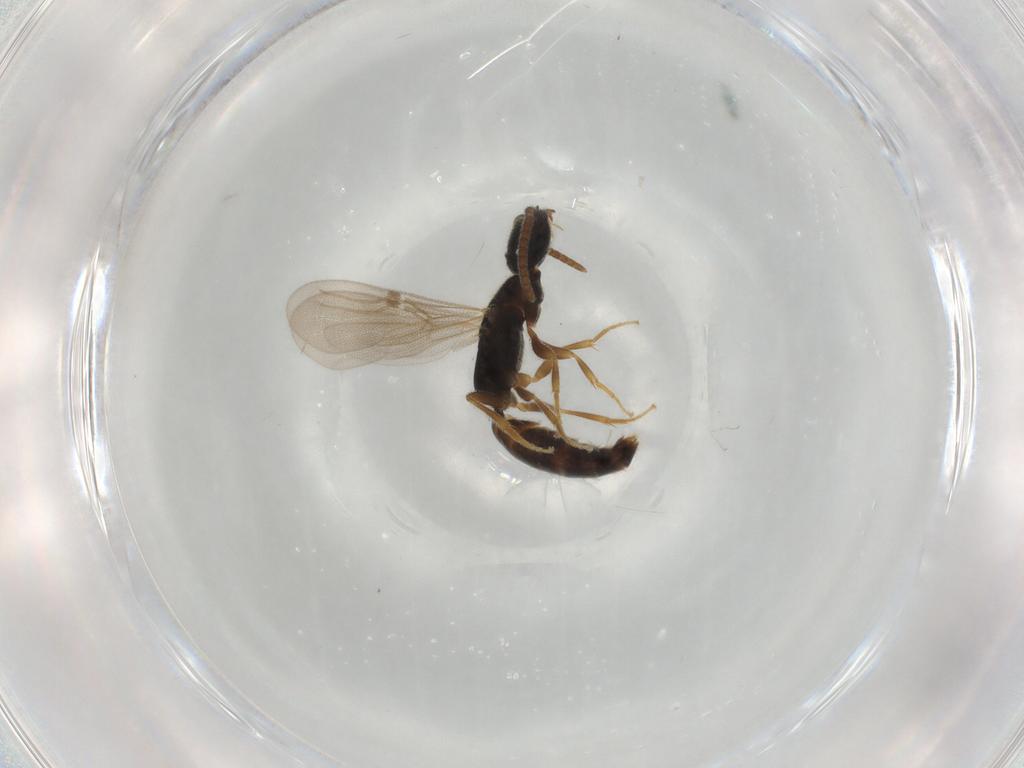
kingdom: Animalia
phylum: Arthropoda
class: Insecta
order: Hymenoptera
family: Bethylidae
